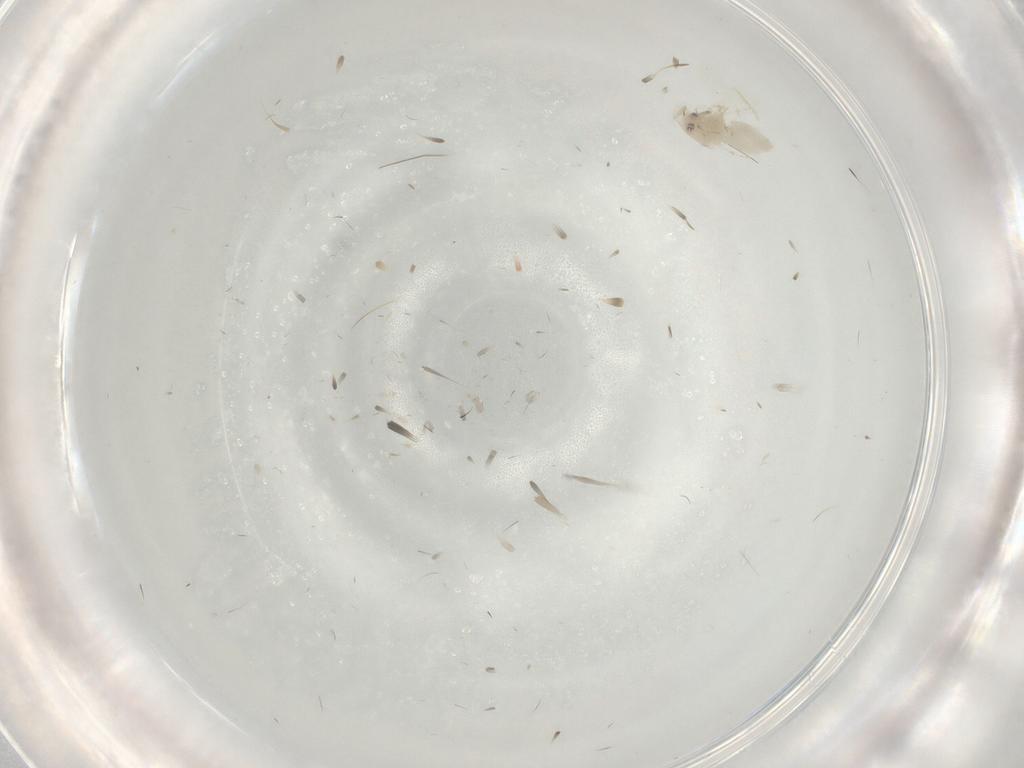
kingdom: Animalia
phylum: Arthropoda
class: Insecta
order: Hemiptera
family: Aleyrodidae
